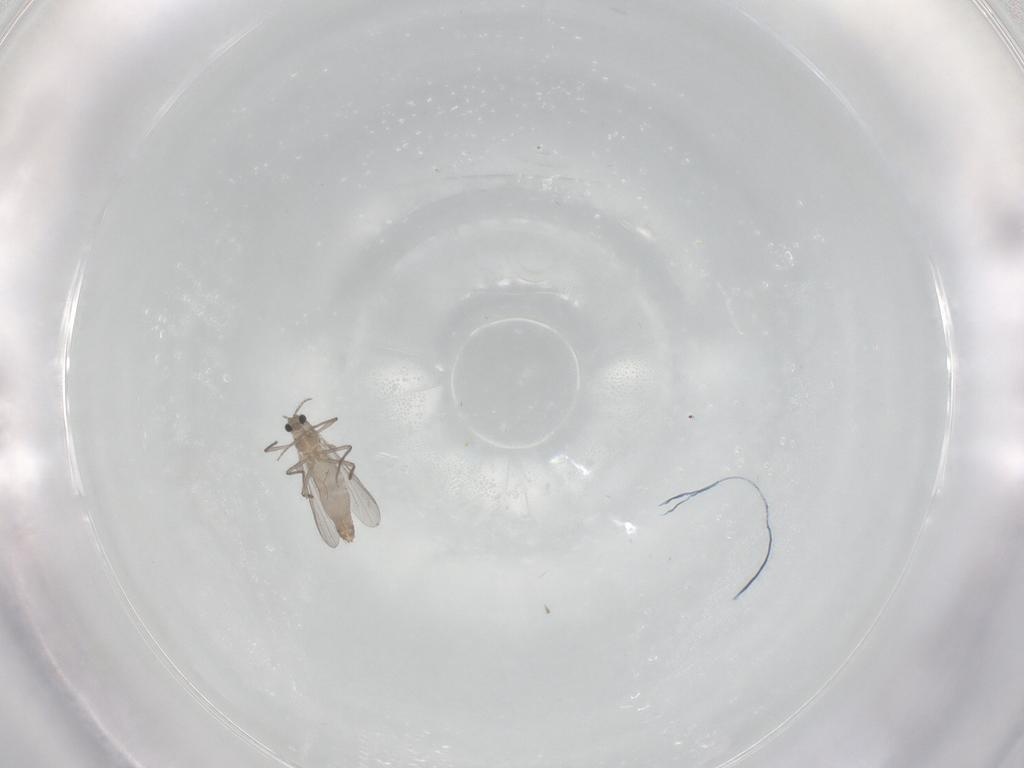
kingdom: Animalia
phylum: Arthropoda
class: Insecta
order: Diptera
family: Chironomidae
